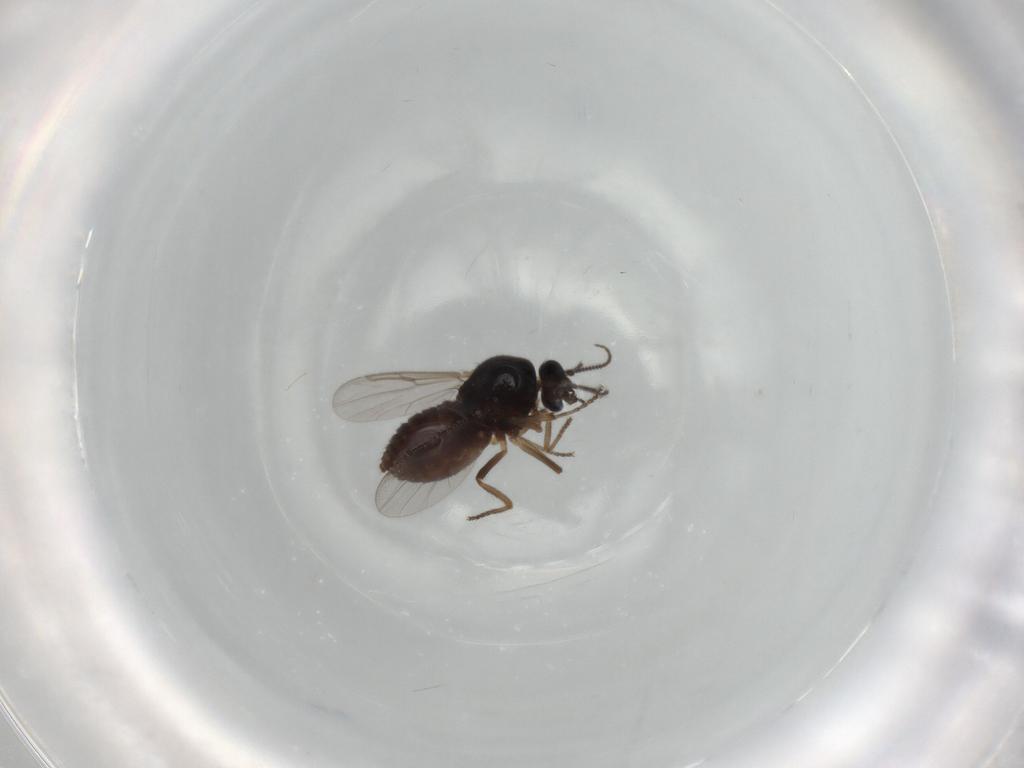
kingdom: Animalia
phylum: Arthropoda
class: Insecta
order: Diptera
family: Ceratopogonidae
